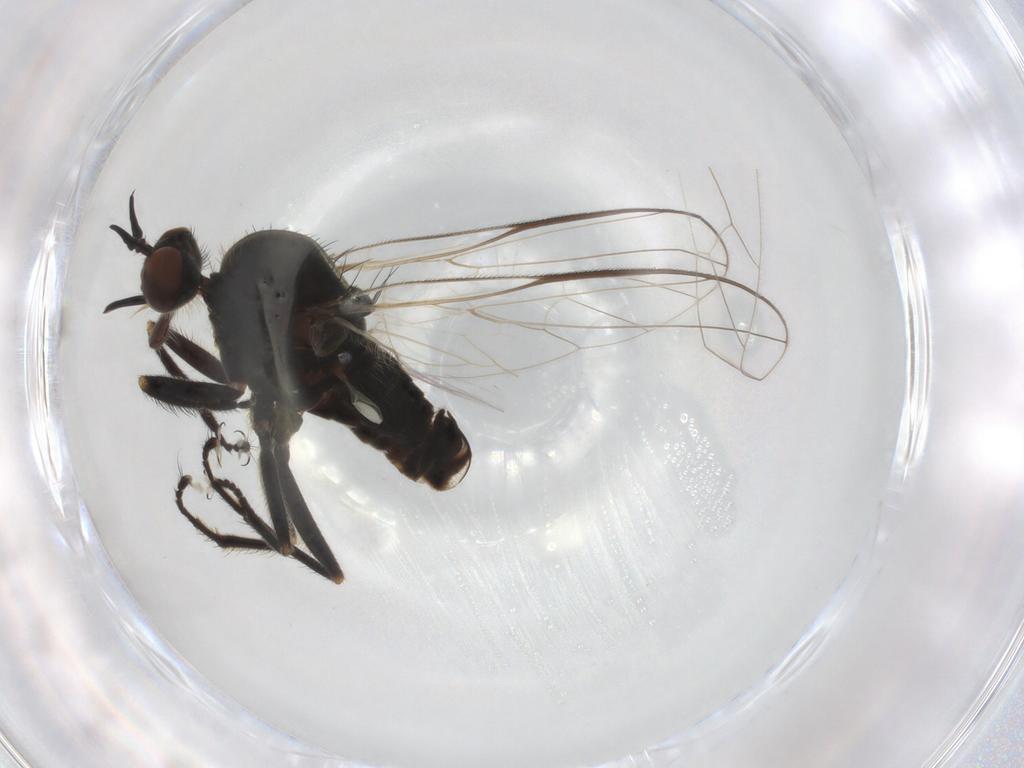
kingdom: Animalia
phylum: Arthropoda
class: Insecta
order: Diptera
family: Empididae
